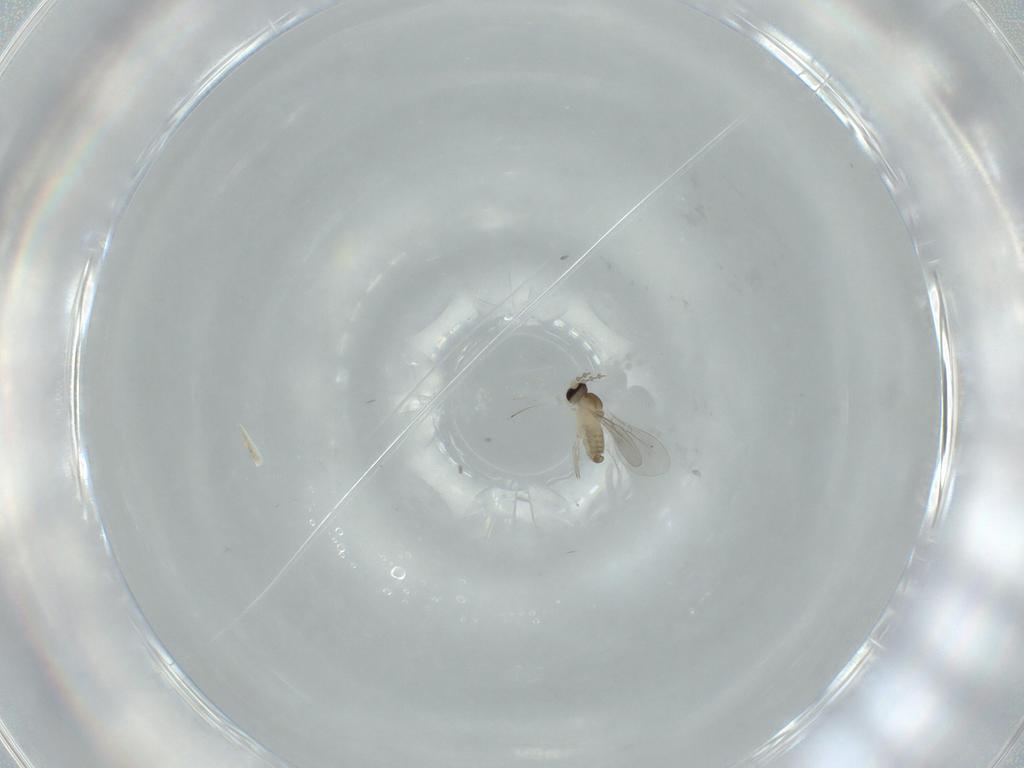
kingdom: Animalia
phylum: Arthropoda
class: Insecta
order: Diptera
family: Cecidomyiidae
